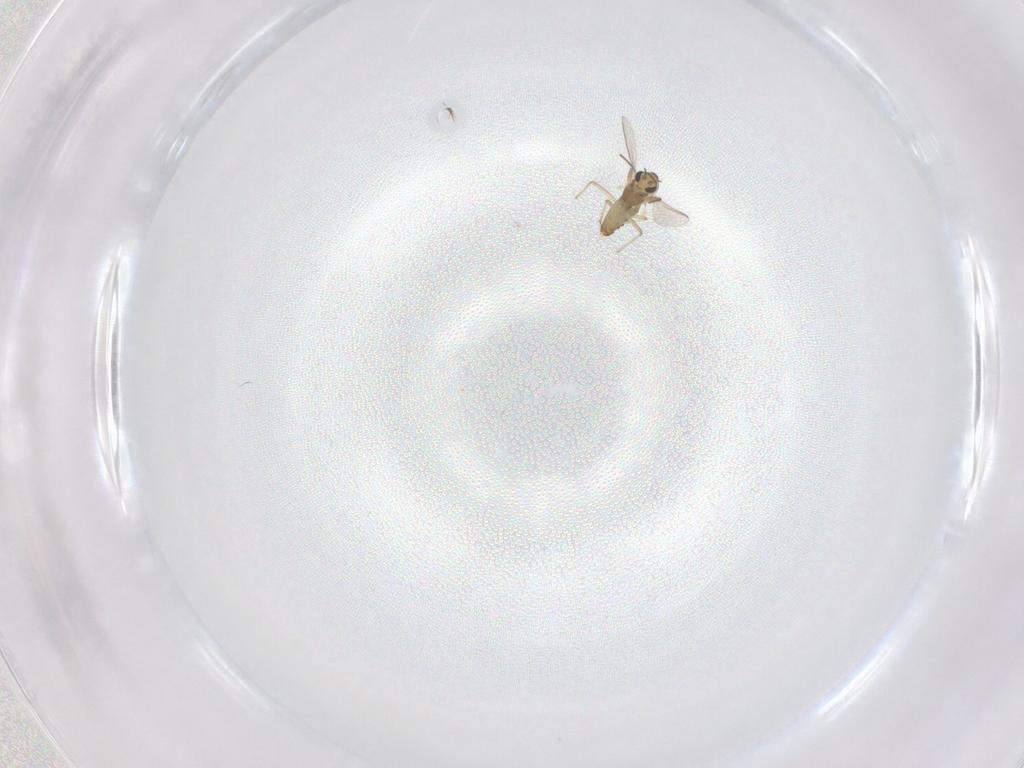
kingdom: Animalia
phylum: Arthropoda
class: Insecta
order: Diptera
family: Chironomidae
